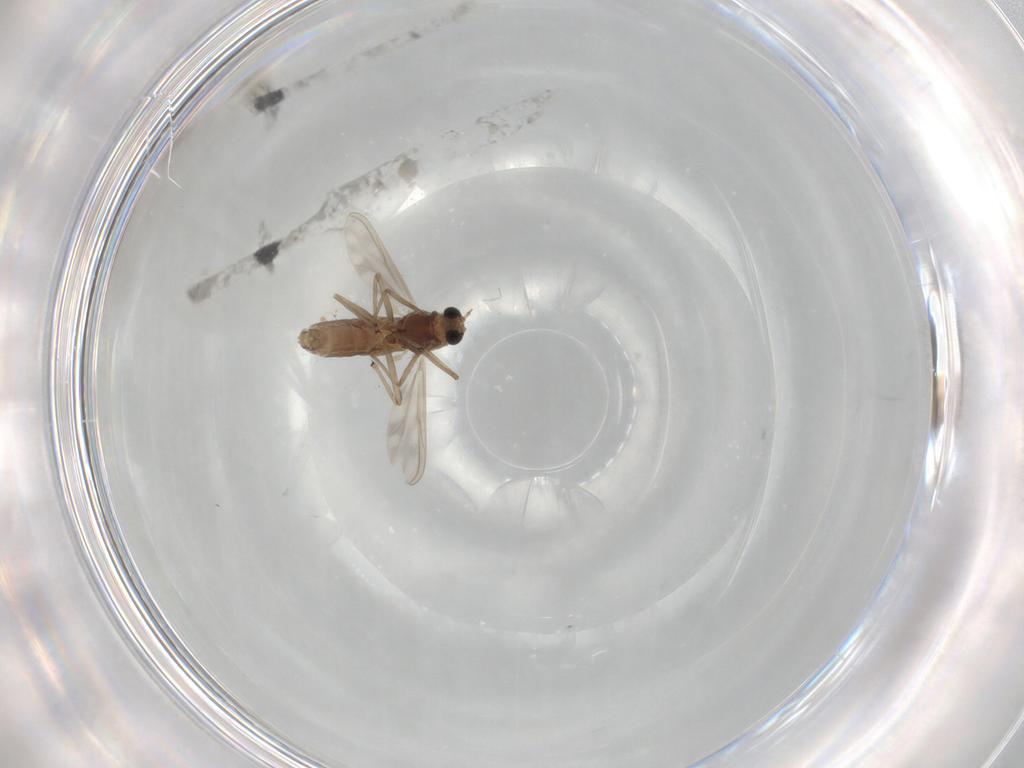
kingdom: Animalia
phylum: Arthropoda
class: Insecta
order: Diptera
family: Chironomidae
